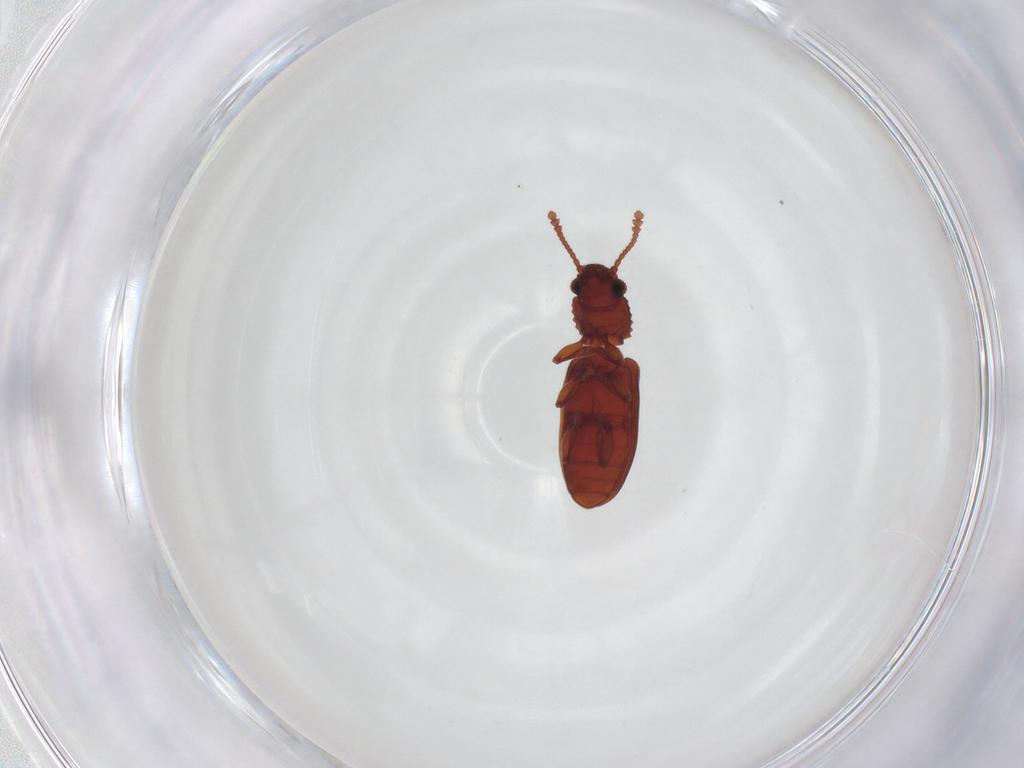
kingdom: Animalia
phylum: Arthropoda
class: Insecta
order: Coleoptera
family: Silvanidae
